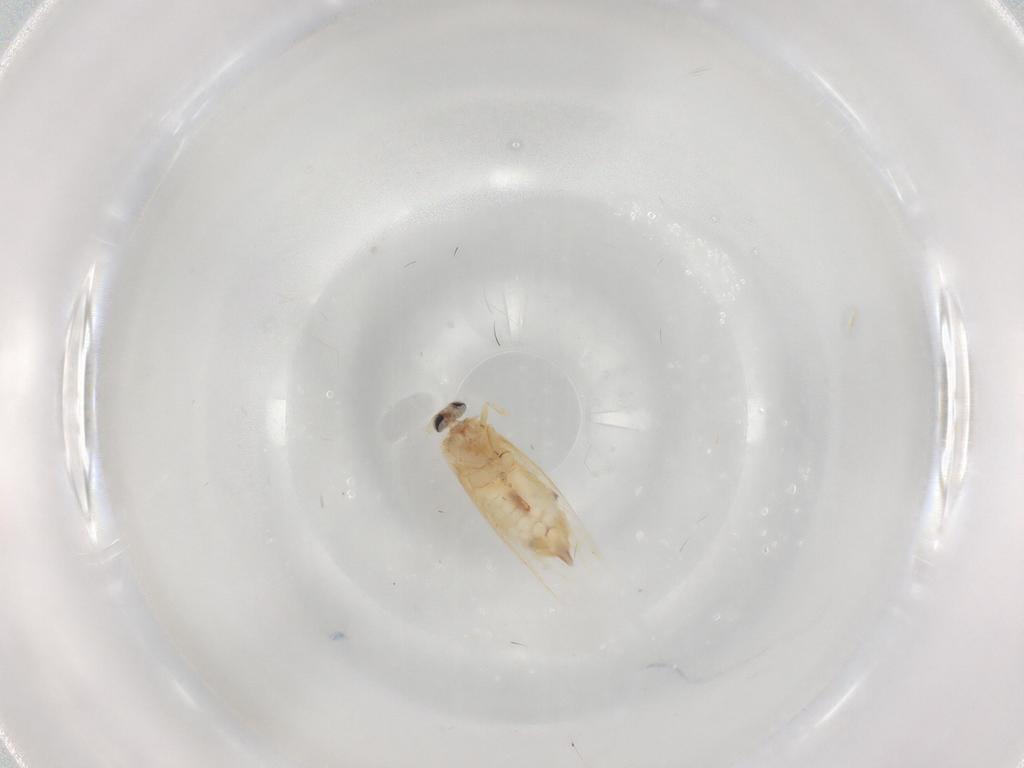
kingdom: Animalia
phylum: Arthropoda
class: Insecta
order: Lepidoptera
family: Nepticulidae
